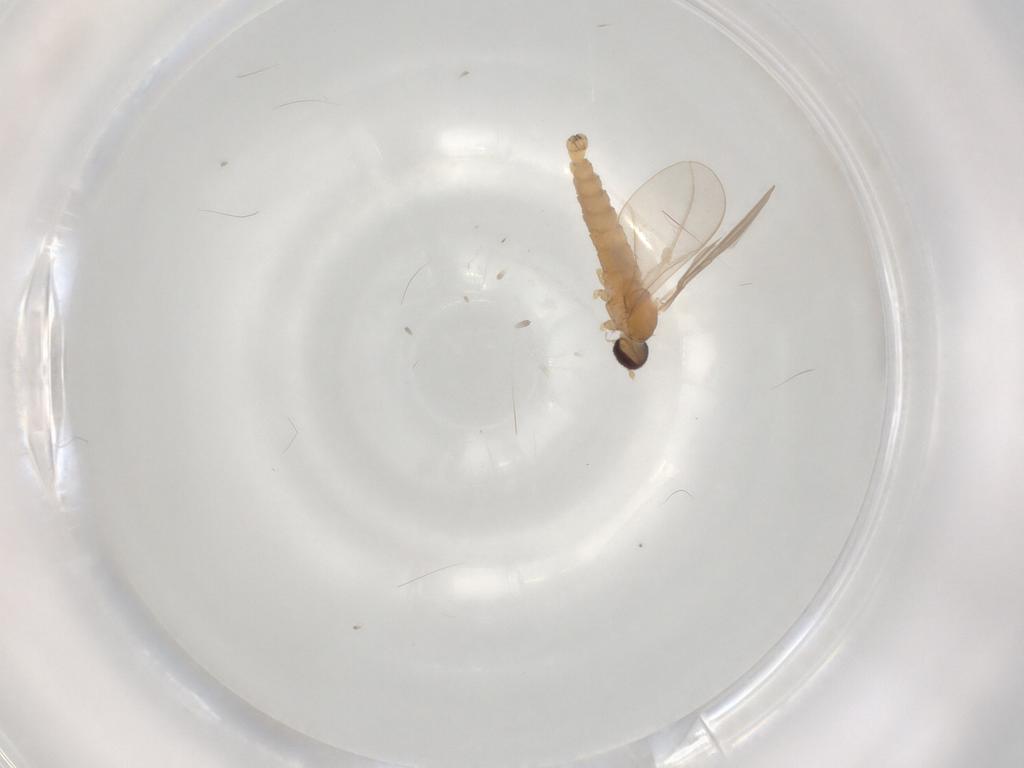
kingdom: Animalia
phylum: Arthropoda
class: Insecta
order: Diptera
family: Cecidomyiidae
